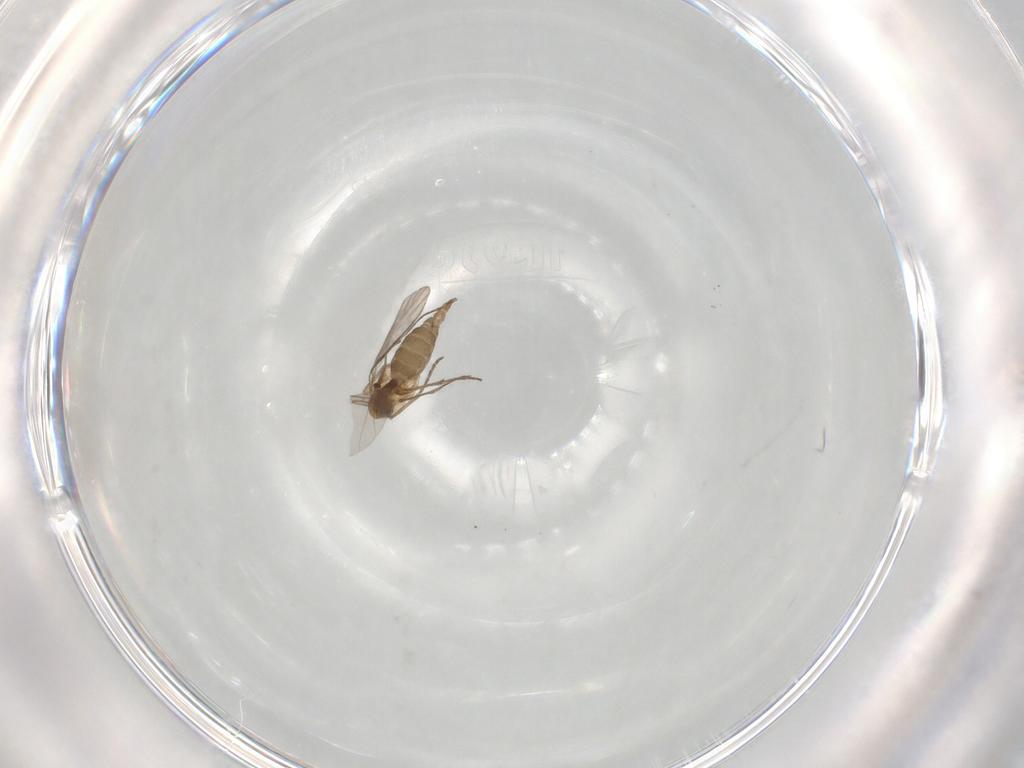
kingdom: Animalia
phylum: Arthropoda
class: Insecta
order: Diptera
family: Sciaridae
